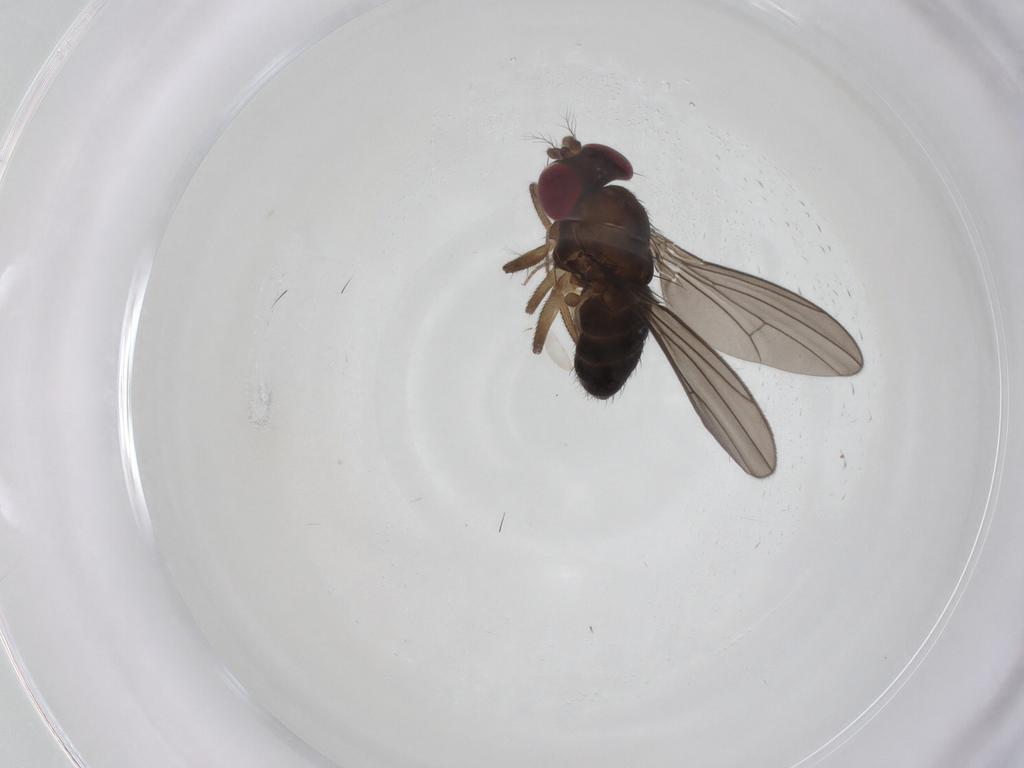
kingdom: Animalia
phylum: Arthropoda
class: Insecta
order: Diptera
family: Drosophilidae
